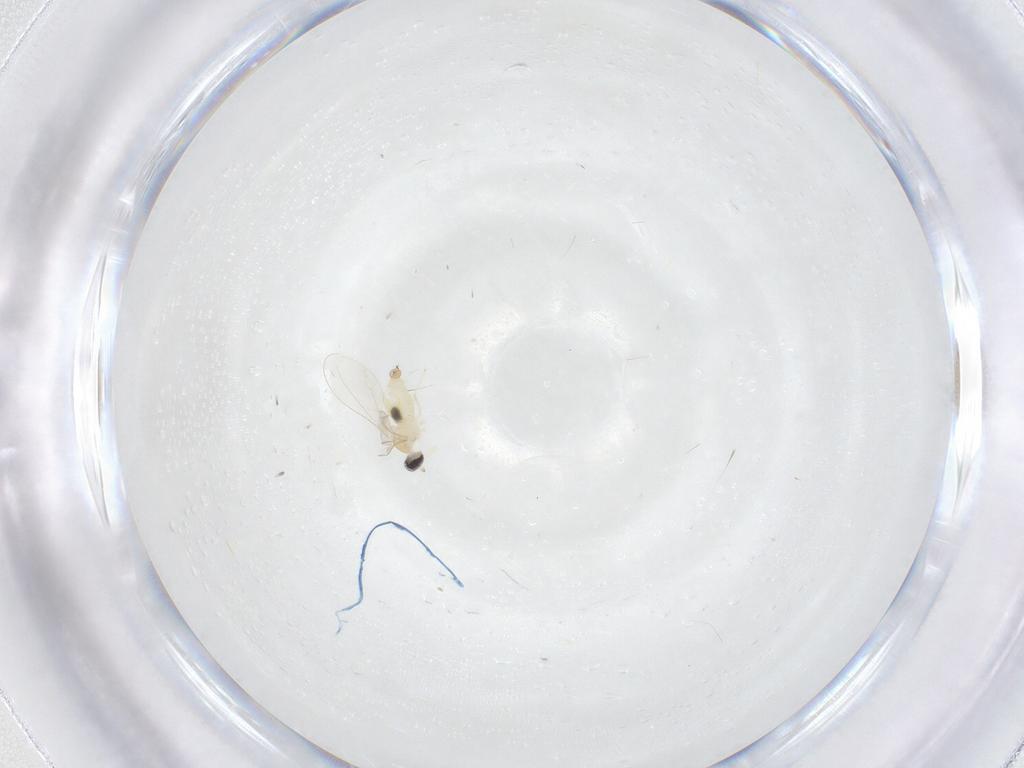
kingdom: Animalia
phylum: Arthropoda
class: Insecta
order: Diptera
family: Cecidomyiidae
